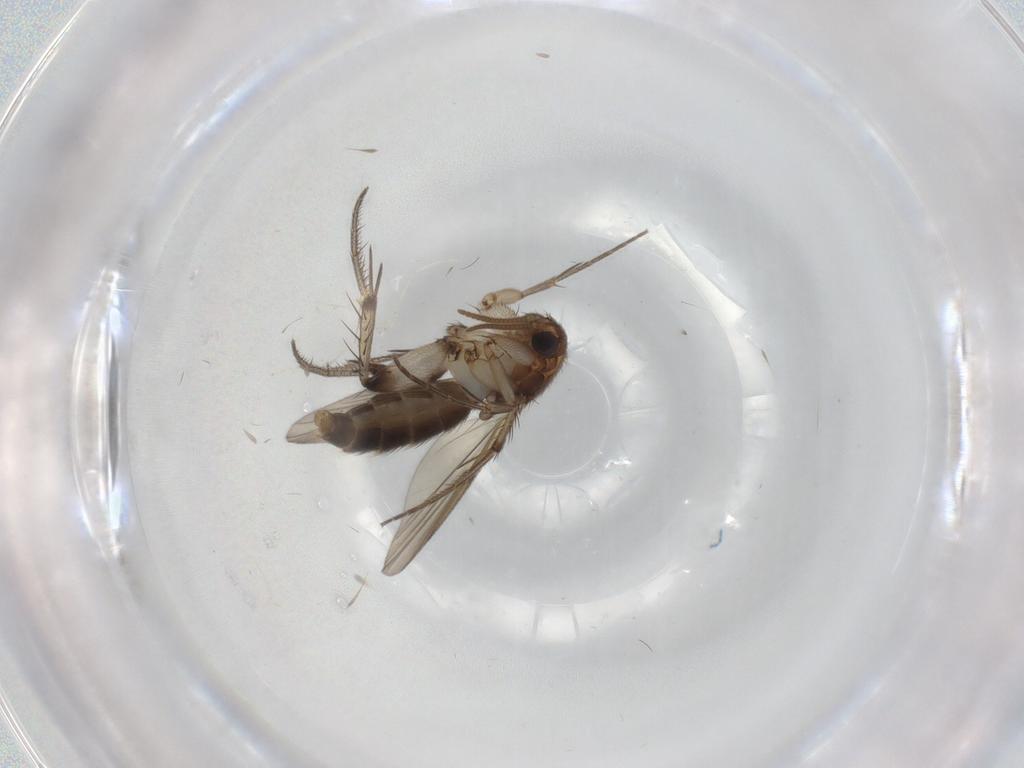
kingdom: Animalia
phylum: Arthropoda
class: Insecta
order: Diptera
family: Mycetophilidae
